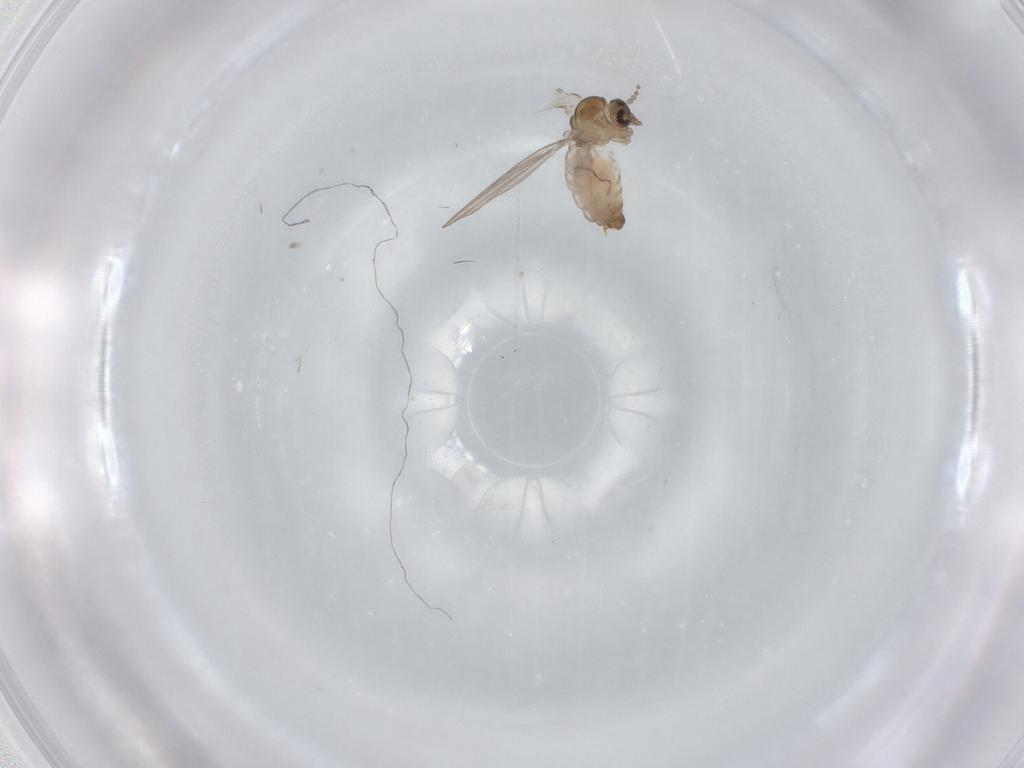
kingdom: Animalia
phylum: Arthropoda
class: Insecta
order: Diptera
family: Psychodidae
